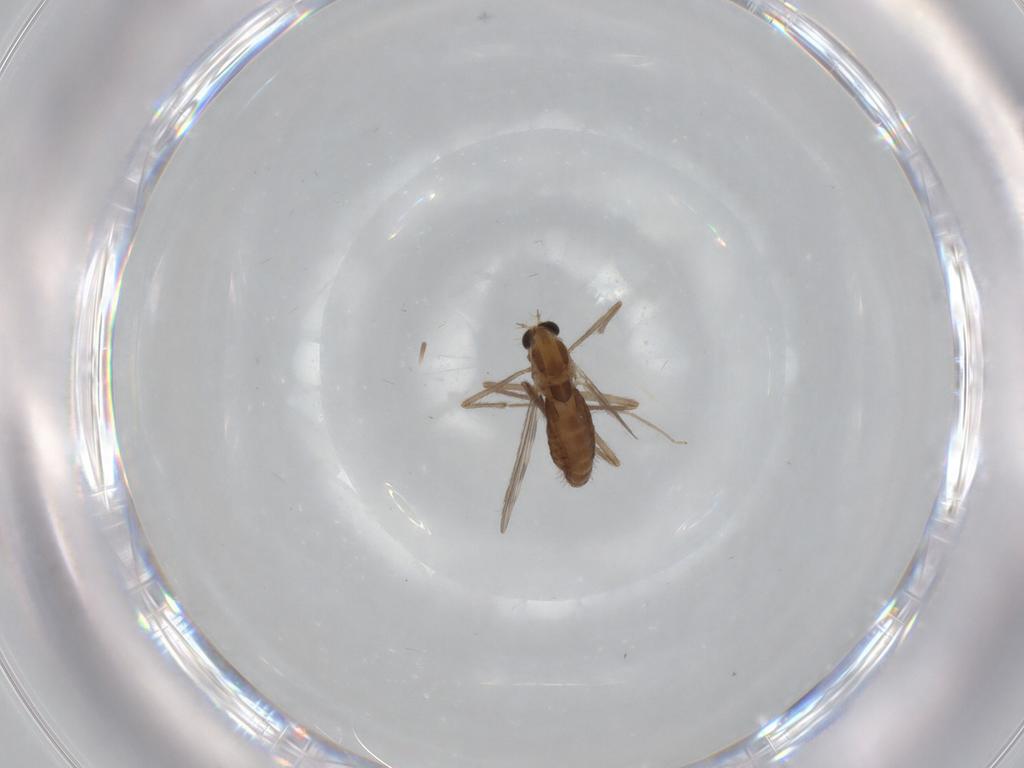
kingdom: Animalia
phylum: Arthropoda
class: Insecta
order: Diptera
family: Chironomidae
